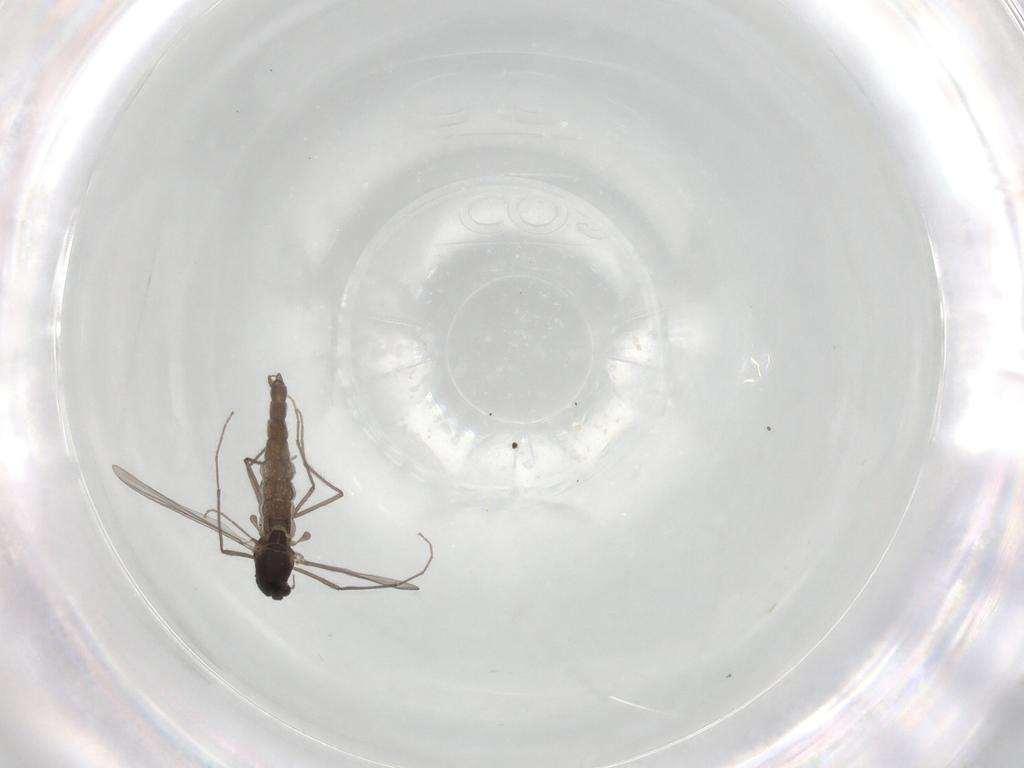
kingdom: Animalia
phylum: Arthropoda
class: Insecta
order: Diptera
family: Chironomidae
